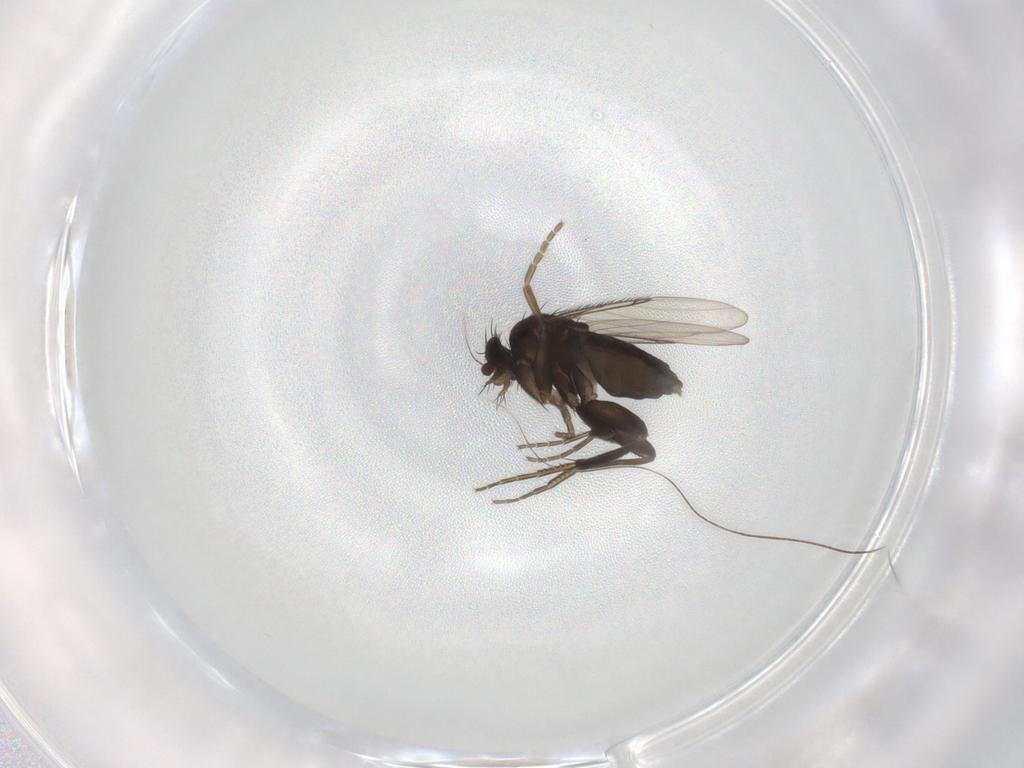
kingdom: Animalia
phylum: Arthropoda
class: Insecta
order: Diptera
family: Phoridae
